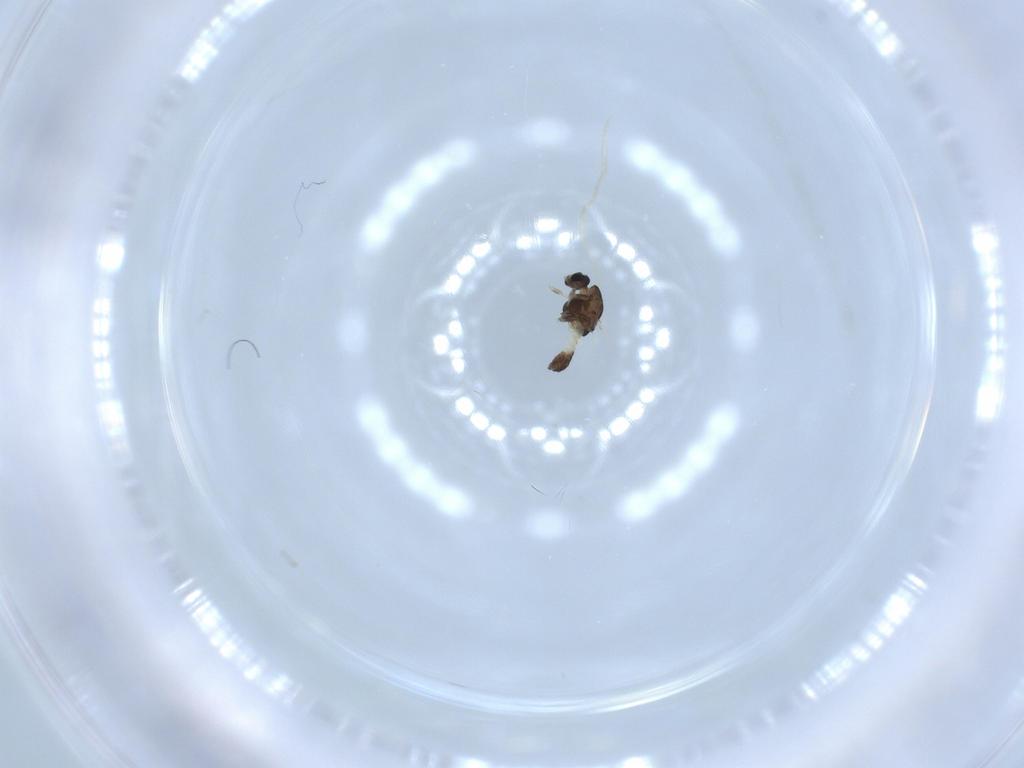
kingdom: Animalia
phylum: Arthropoda
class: Insecta
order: Diptera
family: Chironomidae
